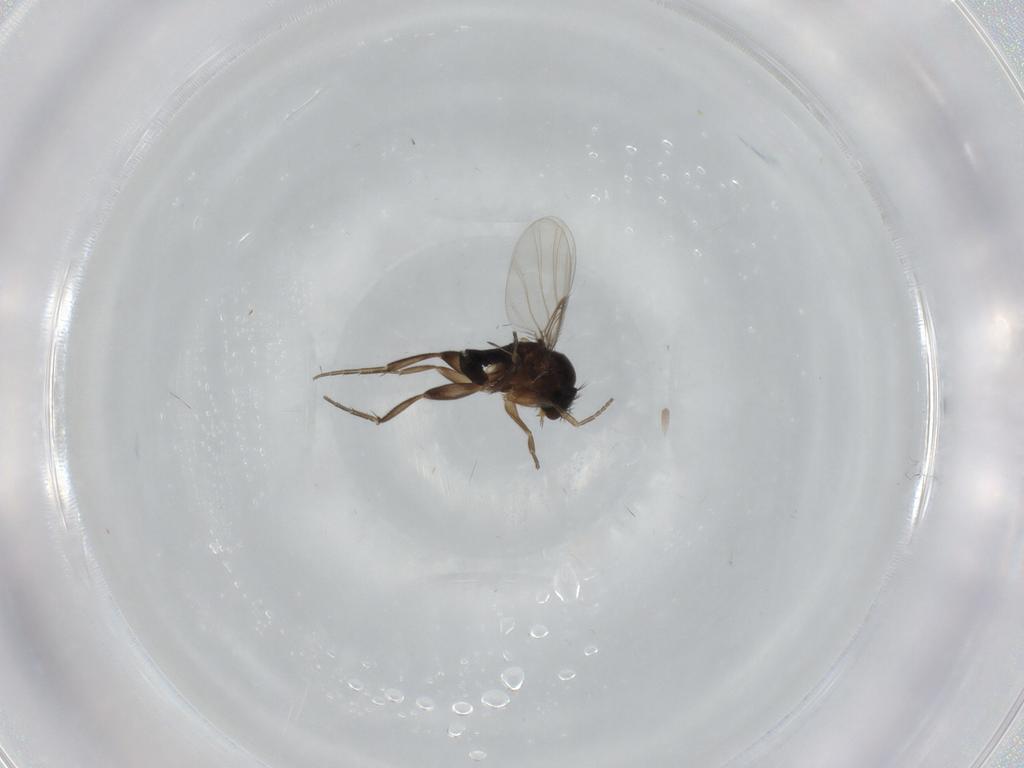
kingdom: Animalia
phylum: Arthropoda
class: Insecta
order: Diptera
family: Phoridae
